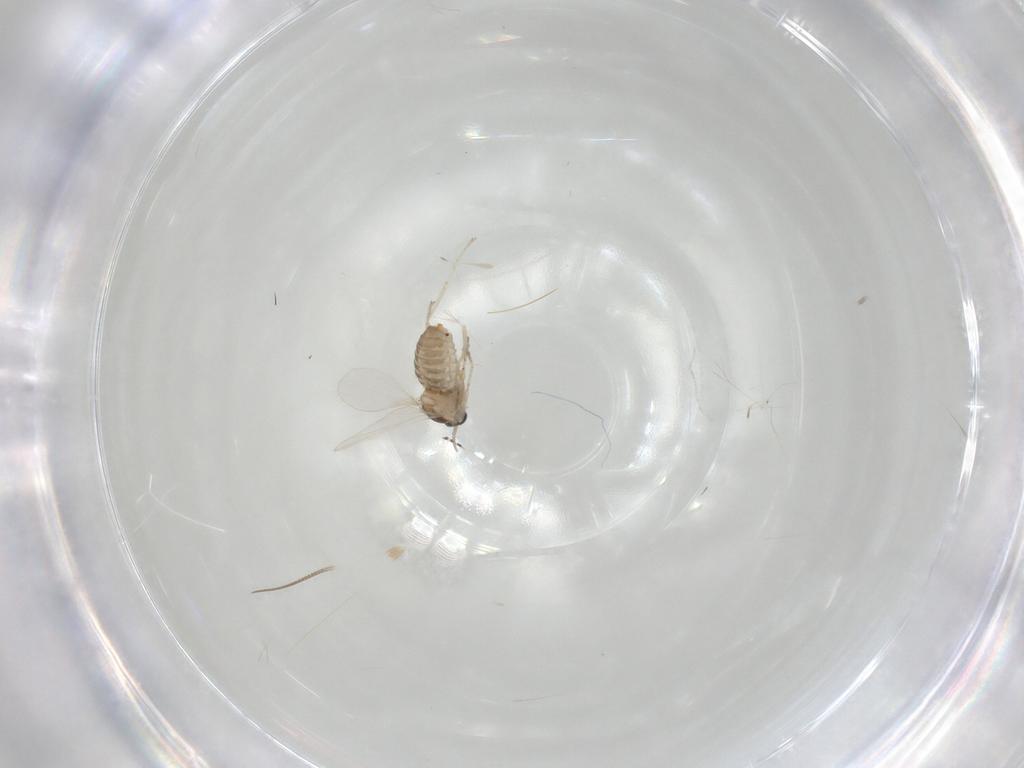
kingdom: Animalia
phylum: Arthropoda
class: Insecta
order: Diptera
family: Cecidomyiidae
